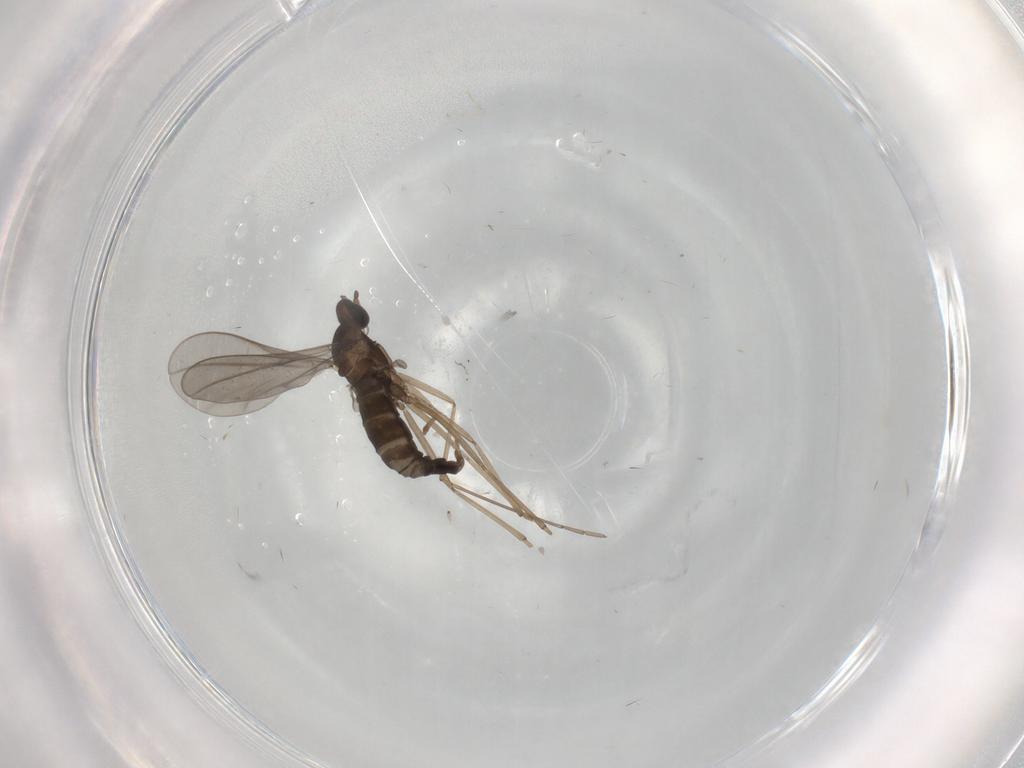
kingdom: Animalia
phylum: Arthropoda
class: Insecta
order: Diptera
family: Cecidomyiidae
